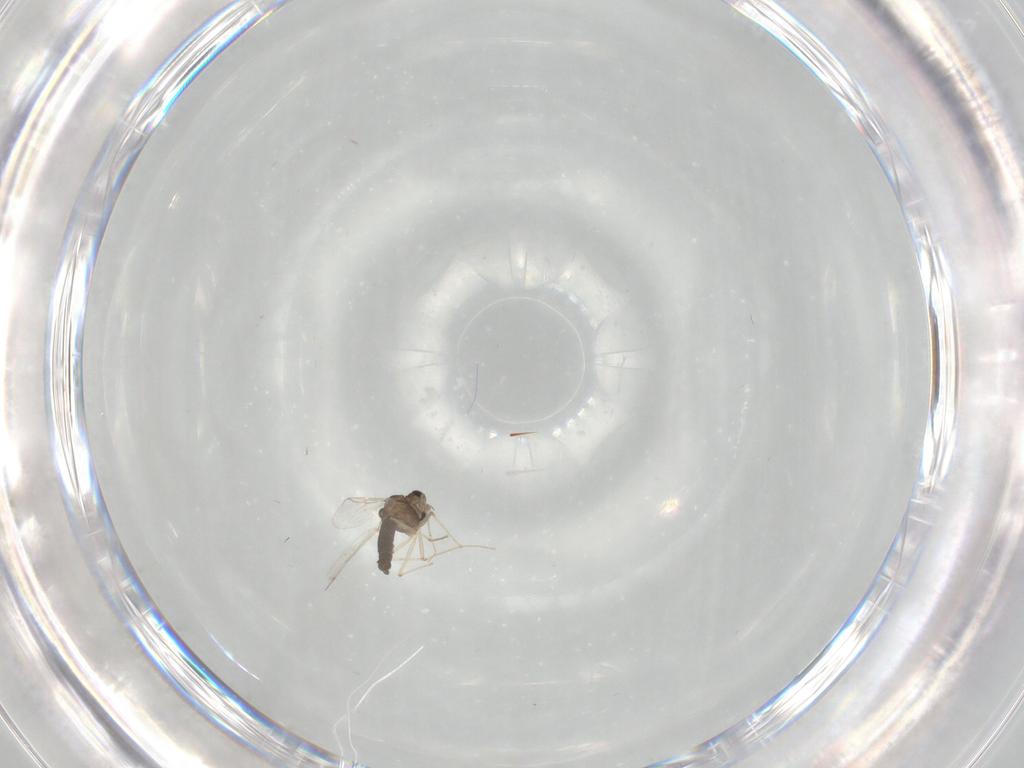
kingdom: Animalia
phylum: Arthropoda
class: Insecta
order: Diptera
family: Chironomidae
